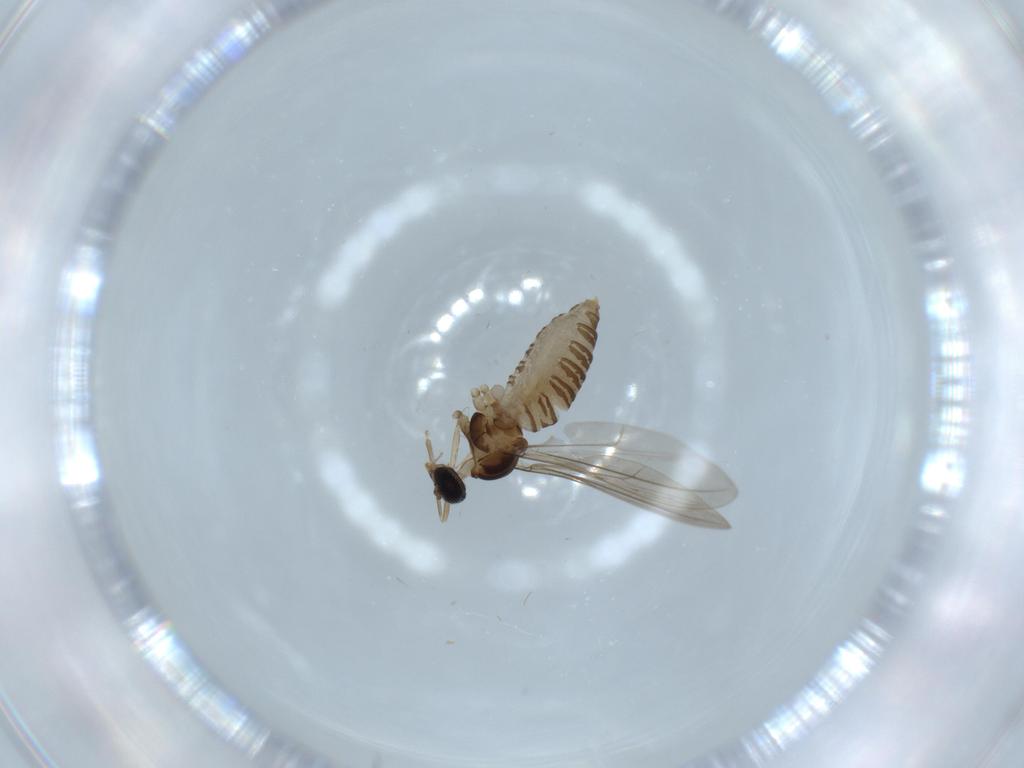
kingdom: Animalia
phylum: Arthropoda
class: Insecta
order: Diptera
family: Cecidomyiidae
